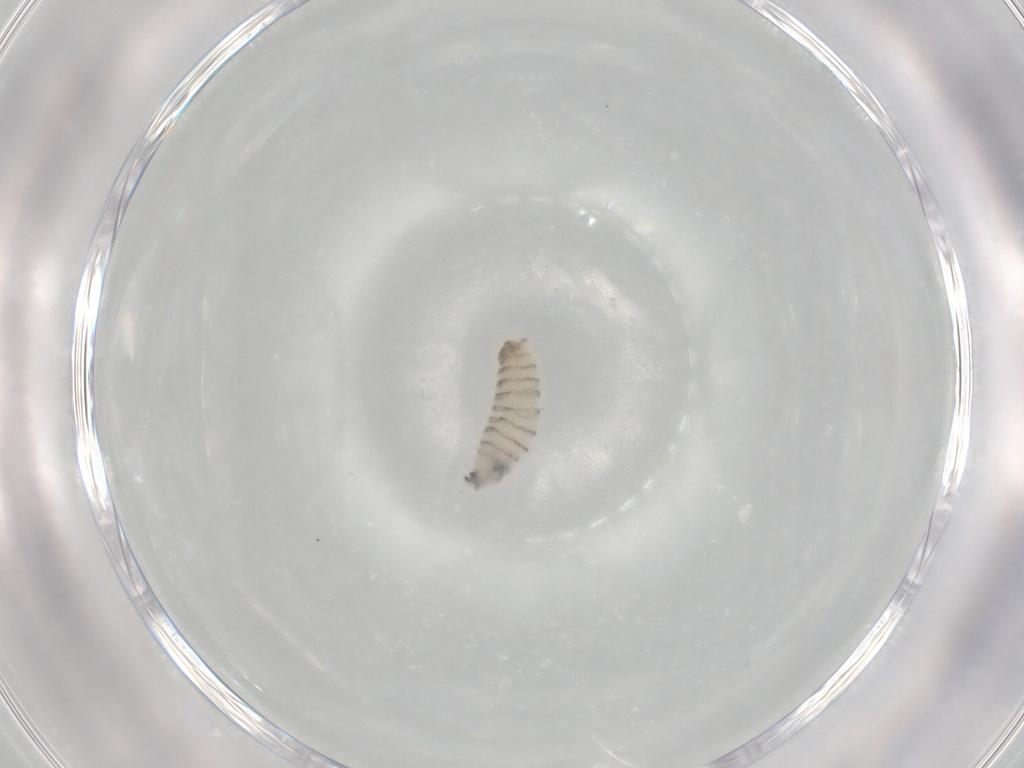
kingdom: Animalia
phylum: Arthropoda
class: Insecta
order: Diptera
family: Sarcophagidae
